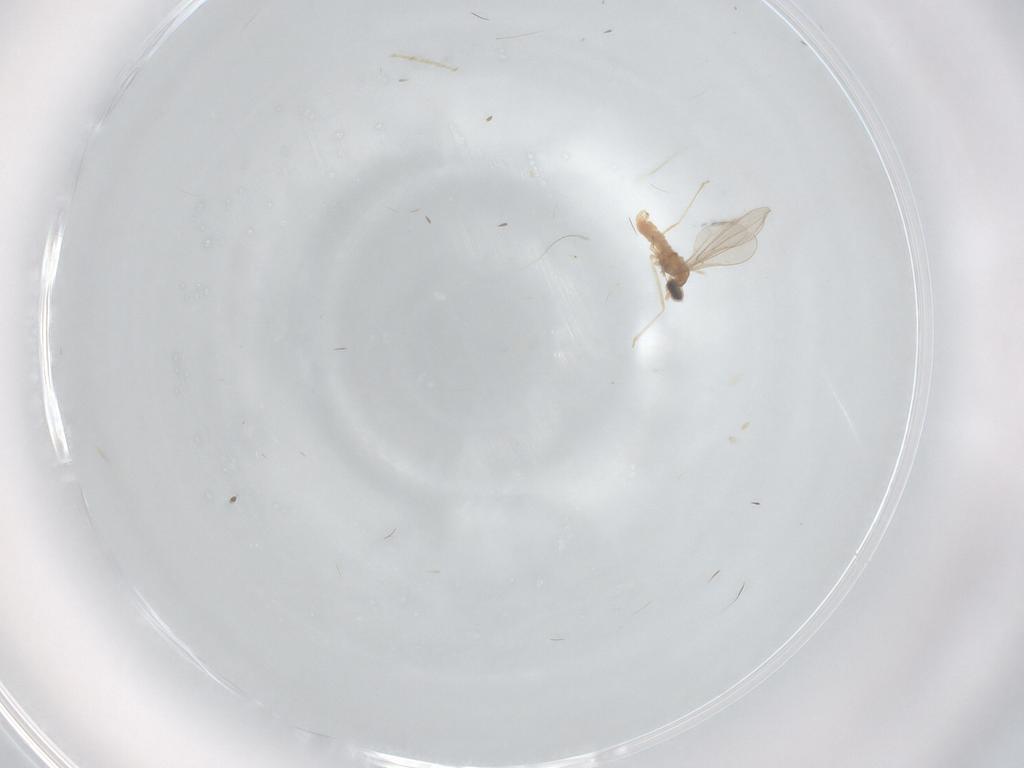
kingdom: Animalia
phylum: Arthropoda
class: Insecta
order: Diptera
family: Cecidomyiidae
